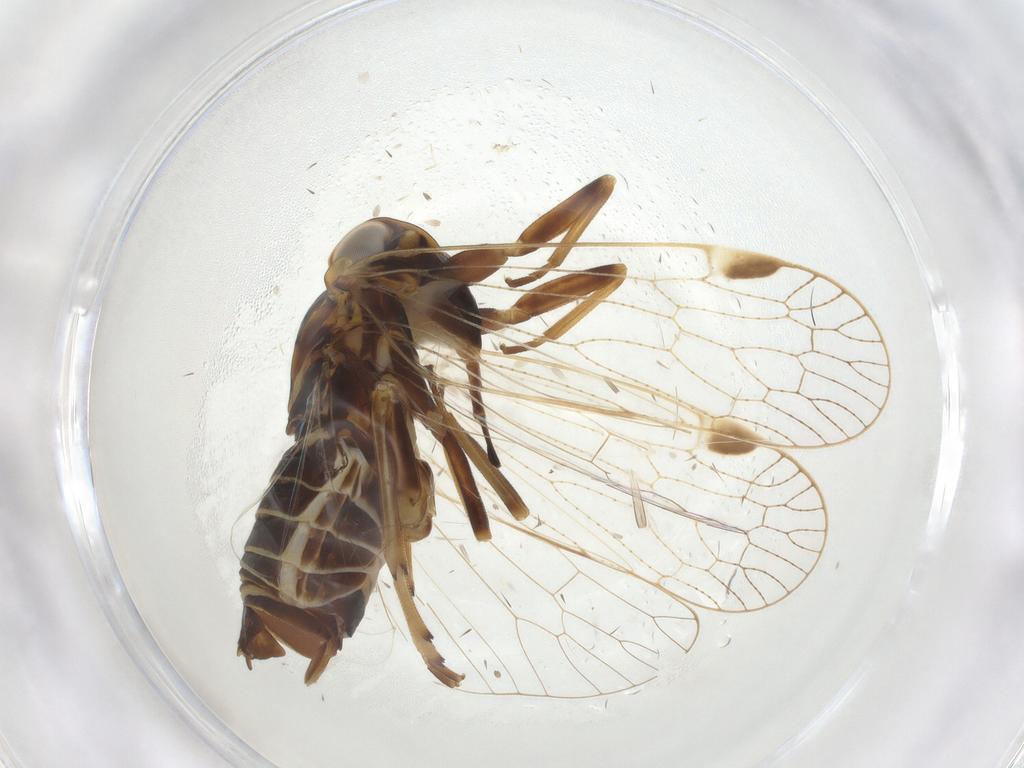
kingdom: Animalia
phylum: Arthropoda
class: Insecta
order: Hemiptera
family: Cixiidae
